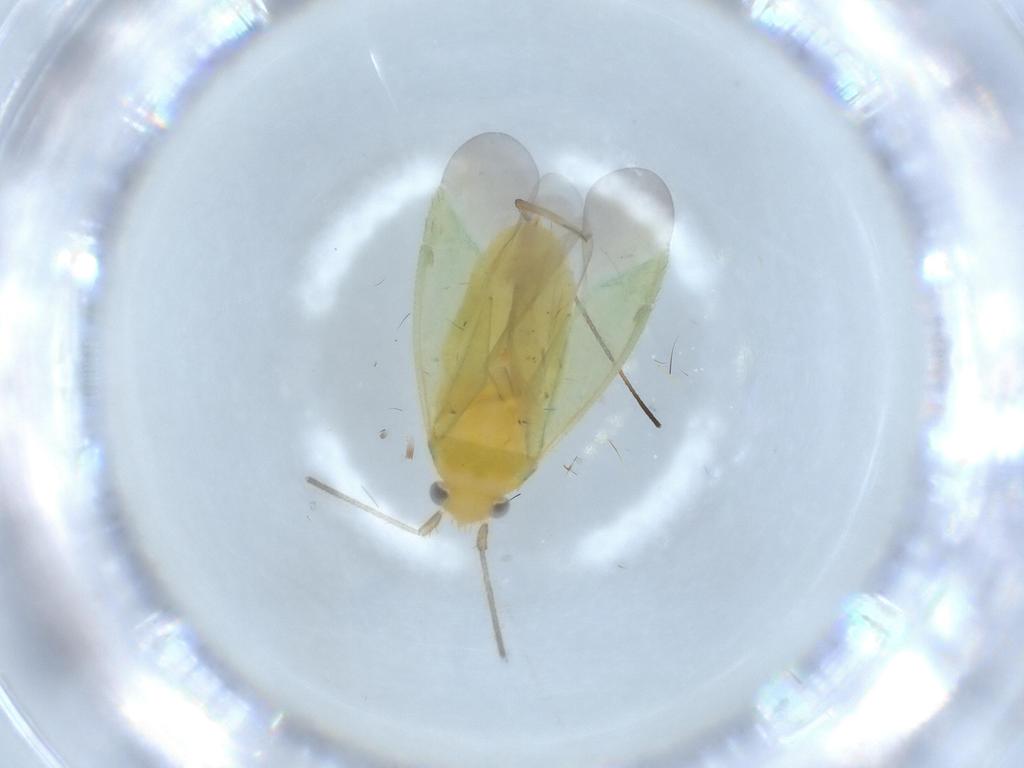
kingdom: Animalia
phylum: Arthropoda
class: Insecta
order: Hemiptera
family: Miridae
